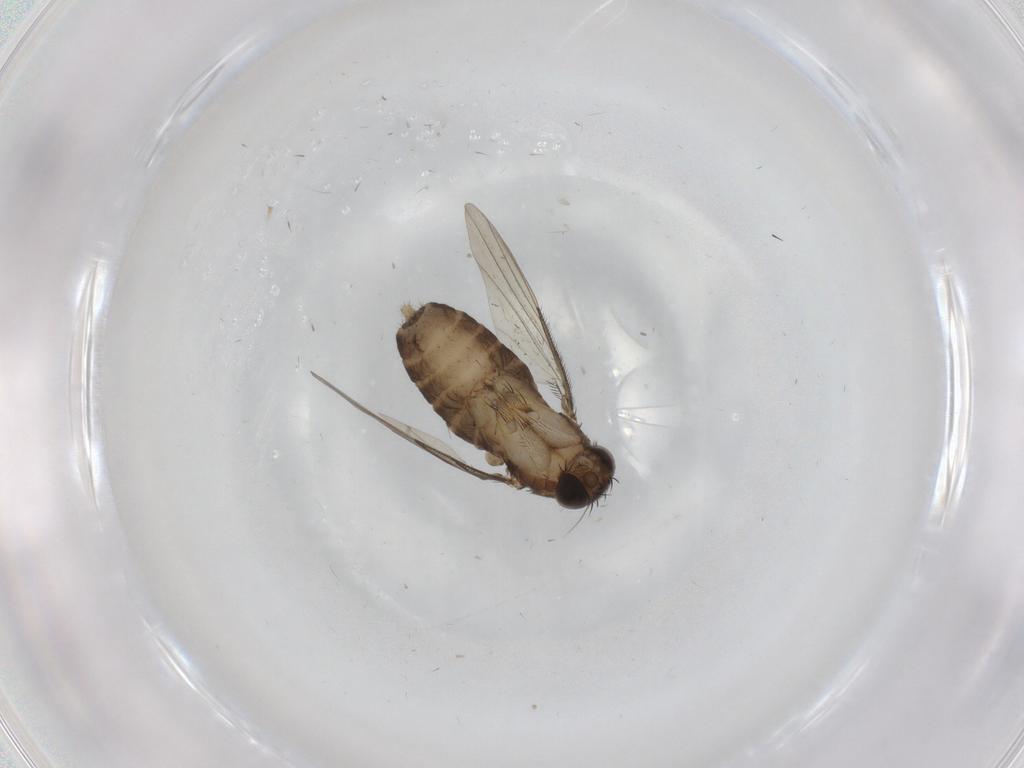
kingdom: Animalia
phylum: Arthropoda
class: Insecta
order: Diptera
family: Phoridae
